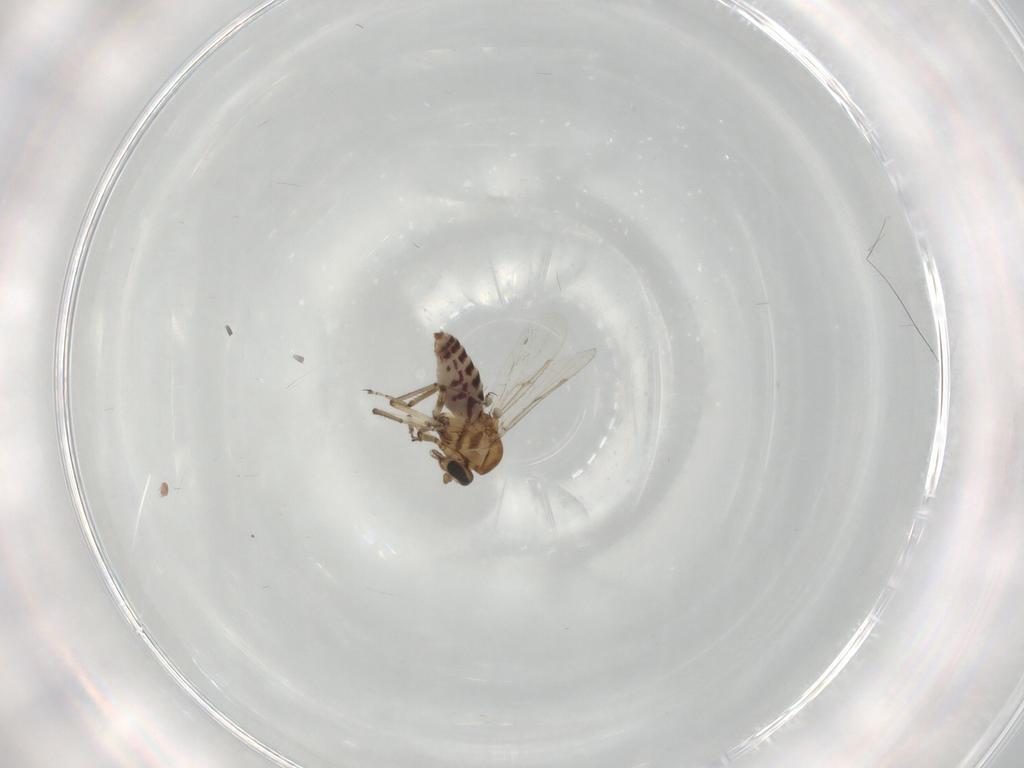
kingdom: Animalia
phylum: Arthropoda
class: Insecta
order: Diptera
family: Ceratopogonidae
